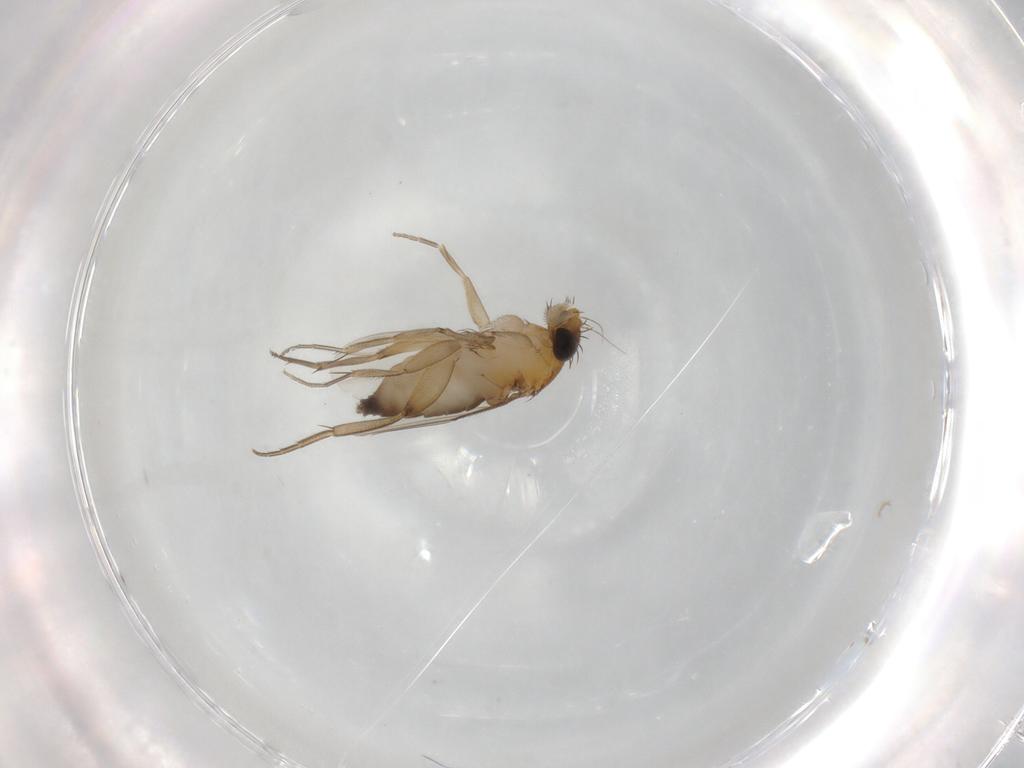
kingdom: Animalia
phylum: Arthropoda
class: Insecta
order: Diptera
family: Phoridae
